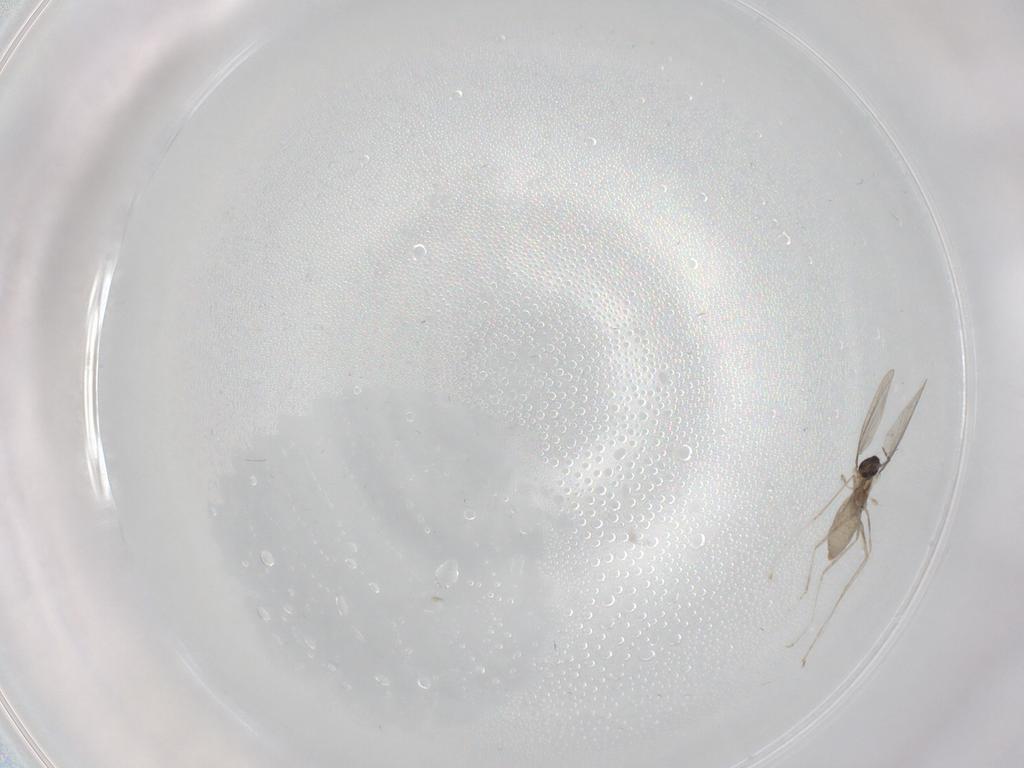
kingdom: Animalia
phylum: Arthropoda
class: Insecta
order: Diptera
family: Cecidomyiidae
